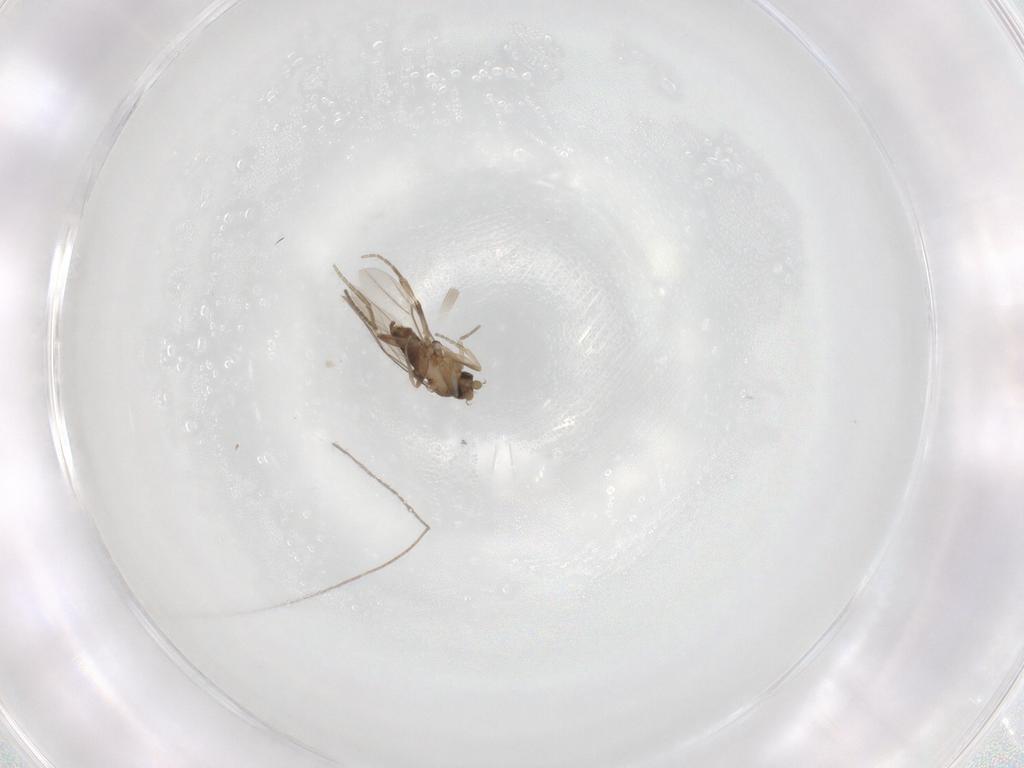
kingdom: Animalia
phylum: Arthropoda
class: Insecta
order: Diptera
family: Sciaridae
